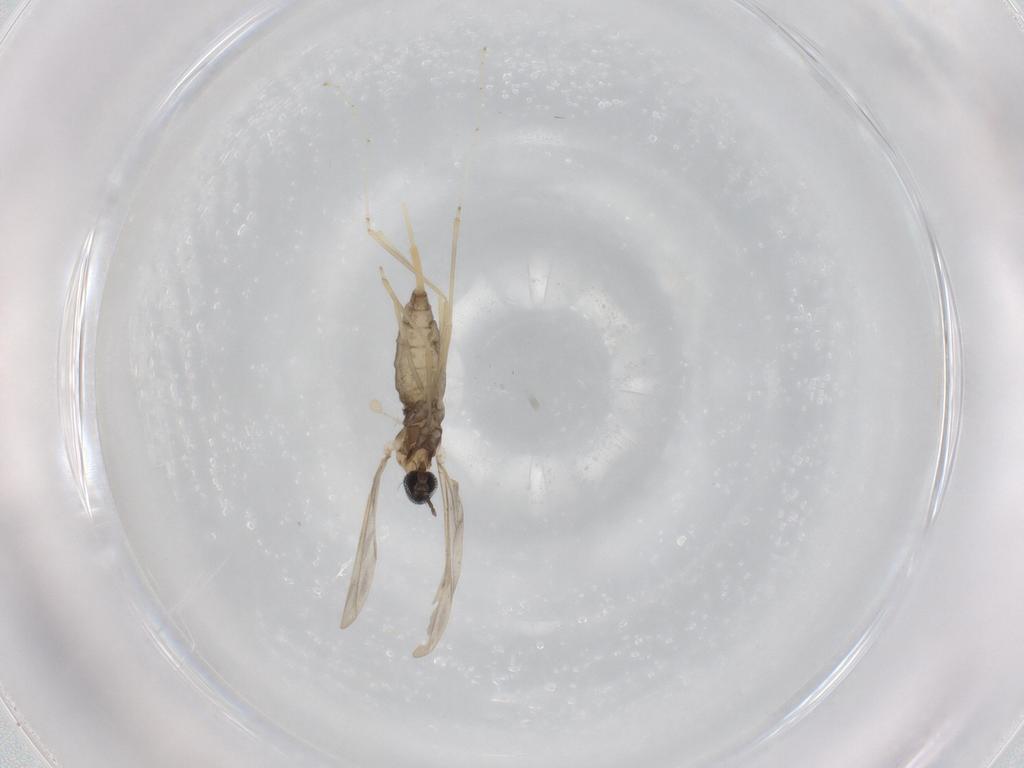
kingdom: Animalia
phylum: Arthropoda
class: Insecta
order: Diptera
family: Cecidomyiidae
